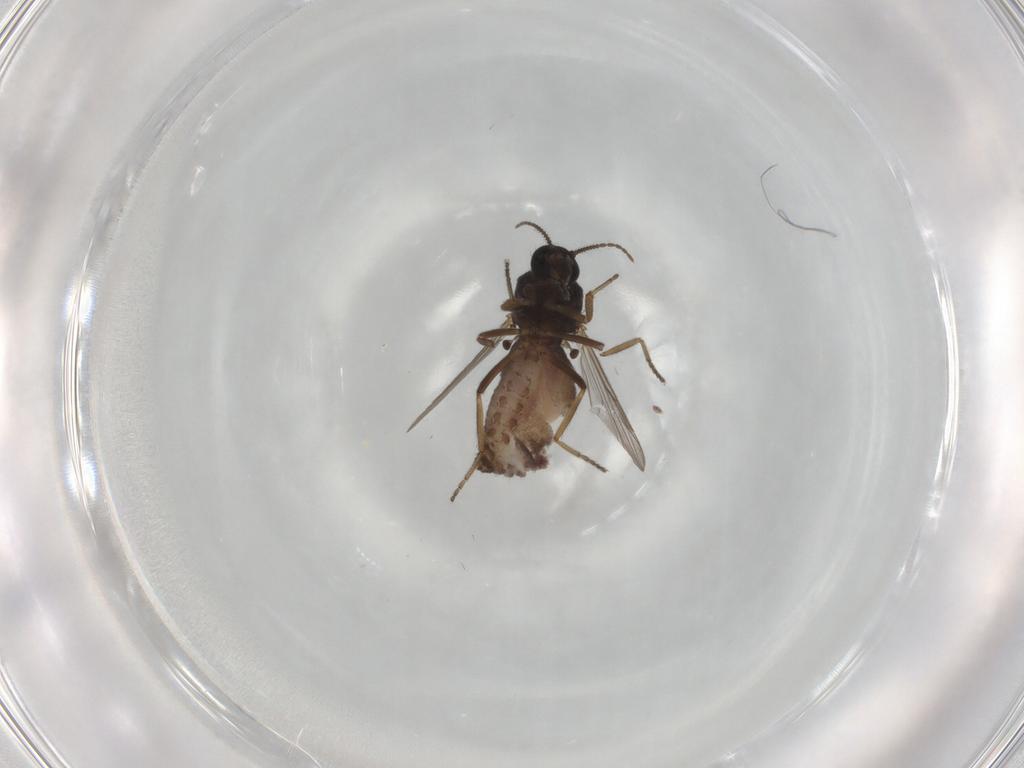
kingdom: Animalia
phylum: Arthropoda
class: Insecta
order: Diptera
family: Ceratopogonidae
